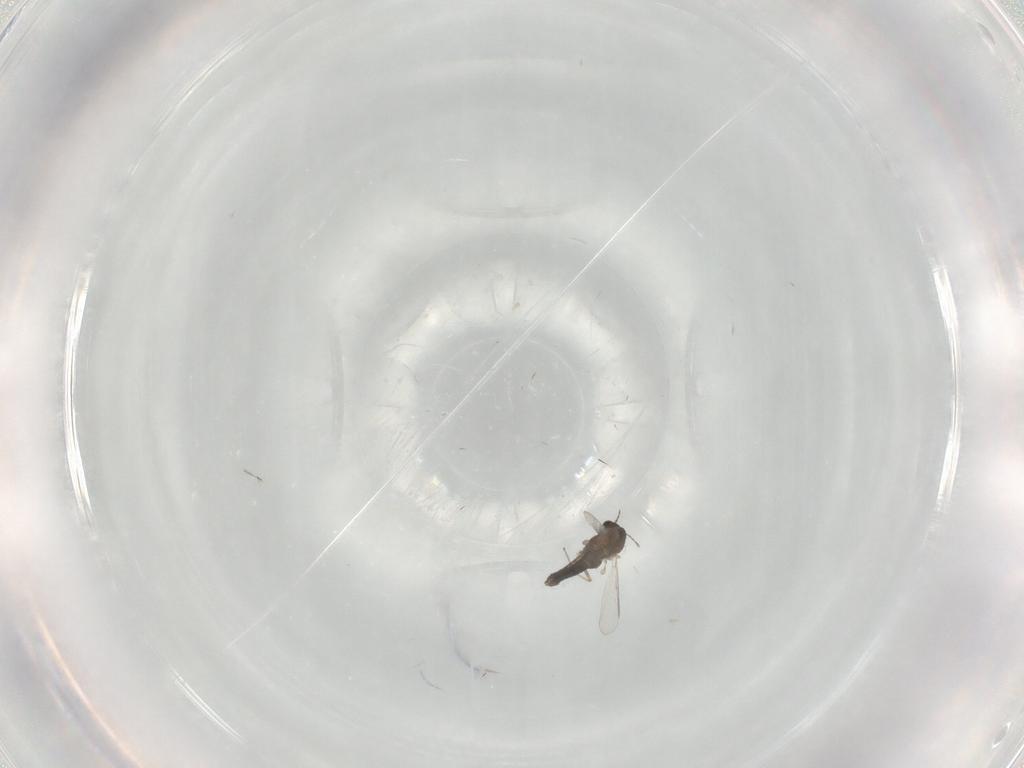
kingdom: Animalia
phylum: Arthropoda
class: Insecta
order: Diptera
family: Chironomidae
